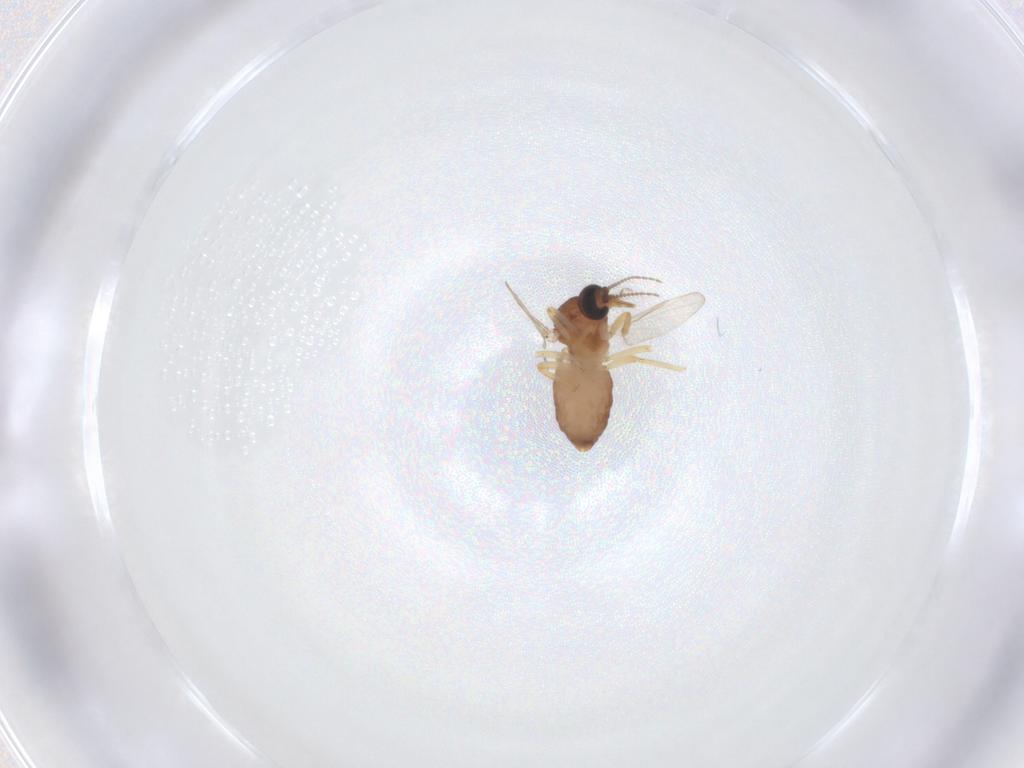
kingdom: Animalia
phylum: Arthropoda
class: Insecta
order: Diptera
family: Ceratopogonidae
